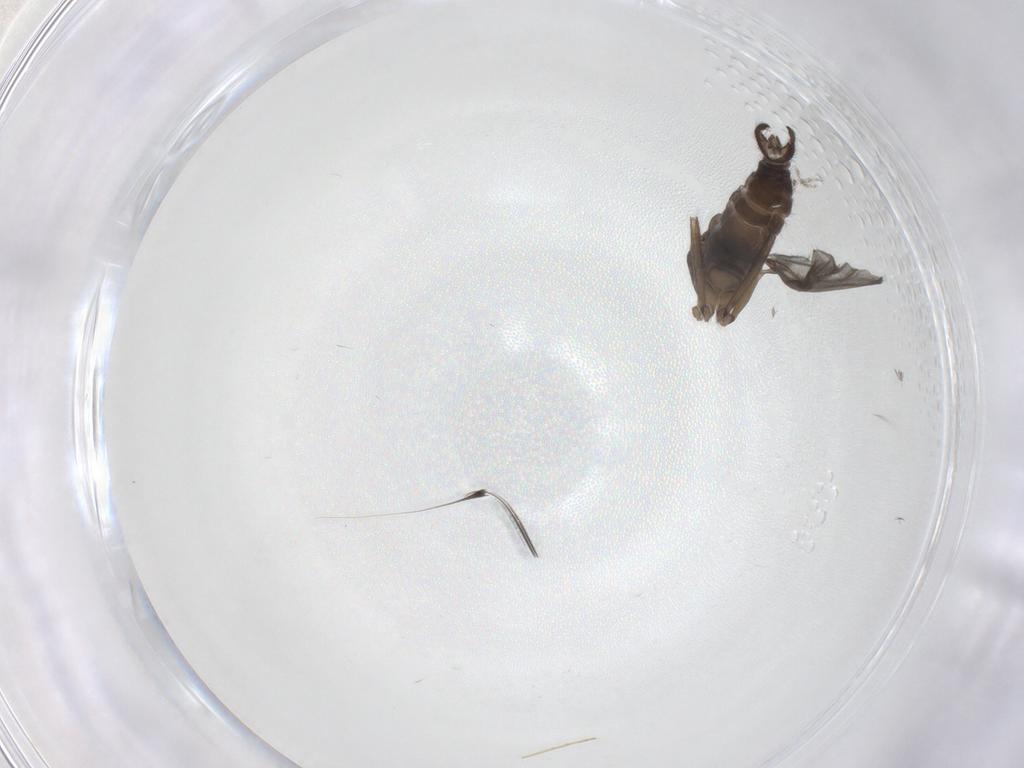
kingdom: Animalia
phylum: Arthropoda
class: Insecta
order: Diptera
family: Sciaridae
